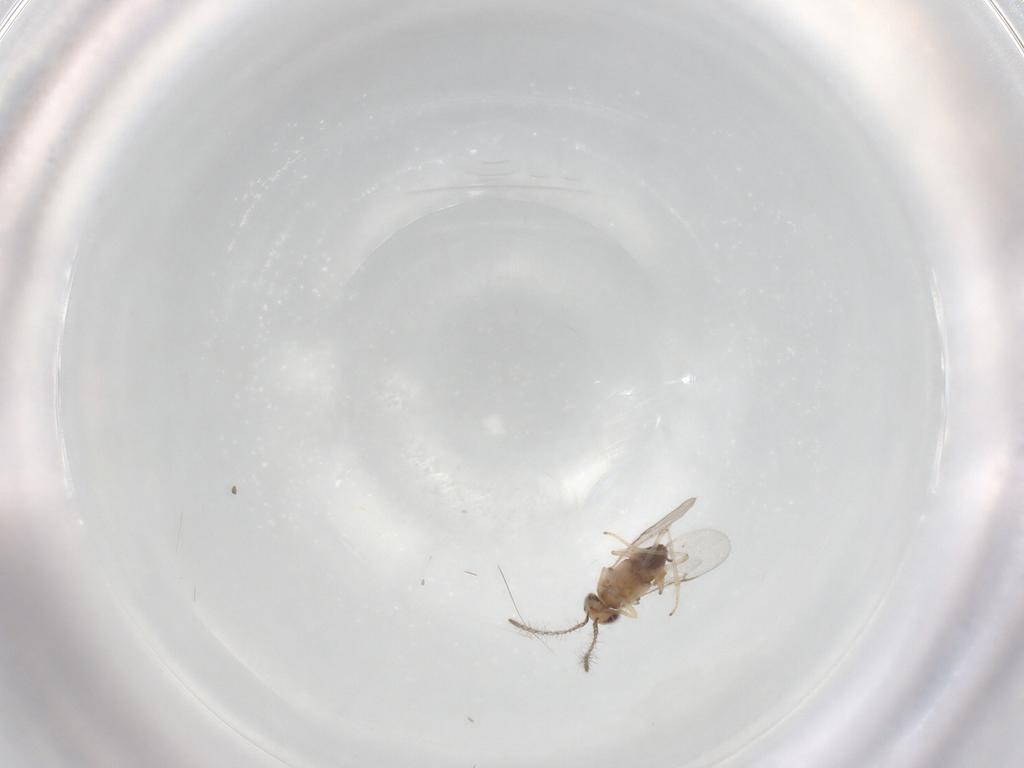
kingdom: Animalia
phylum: Arthropoda
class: Insecta
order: Hymenoptera
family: Encyrtidae
